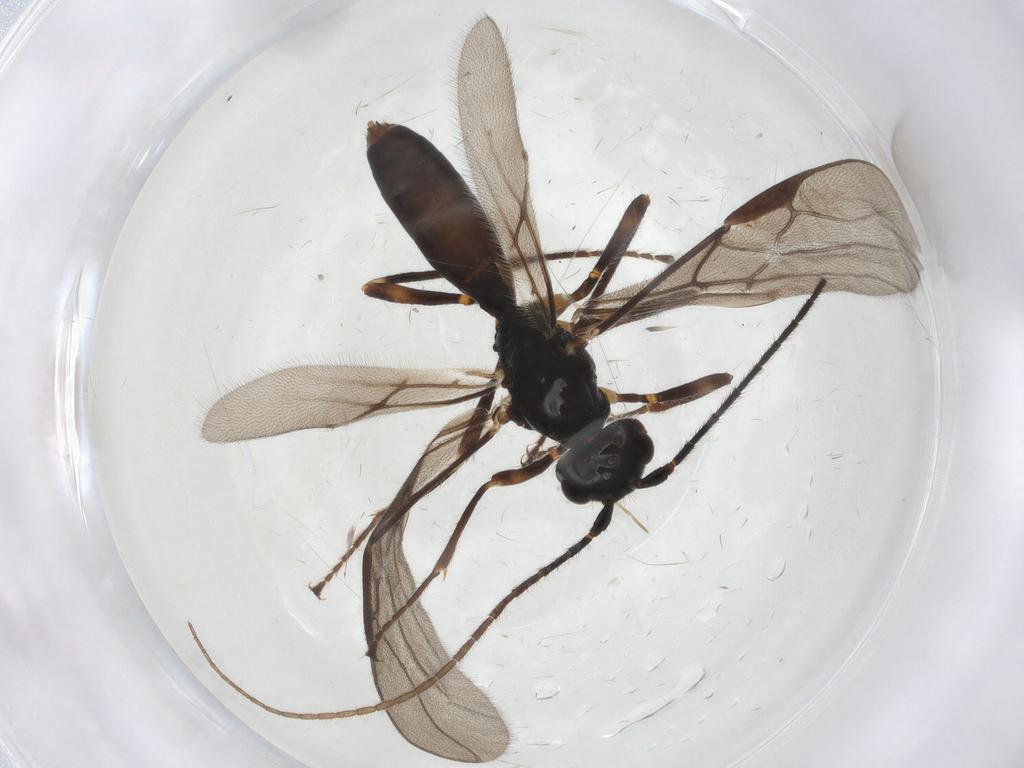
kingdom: Animalia
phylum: Arthropoda
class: Insecta
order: Hymenoptera
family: Braconidae
